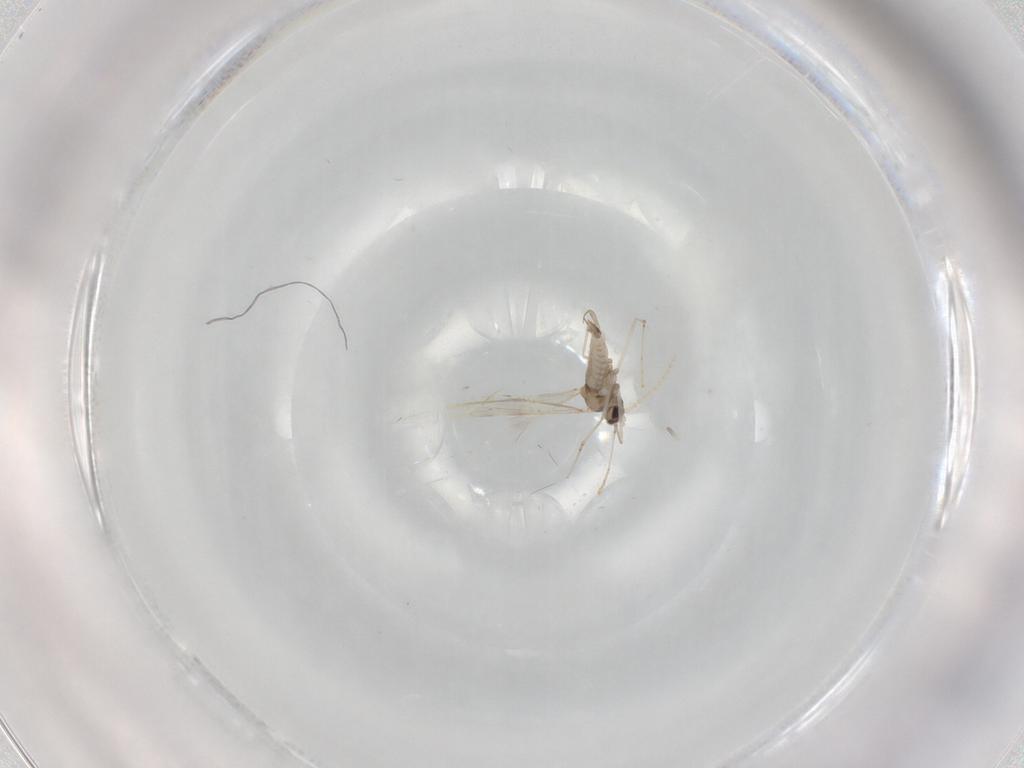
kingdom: Animalia
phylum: Arthropoda
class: Insecta
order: Diptera
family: Cecidomyiidae
